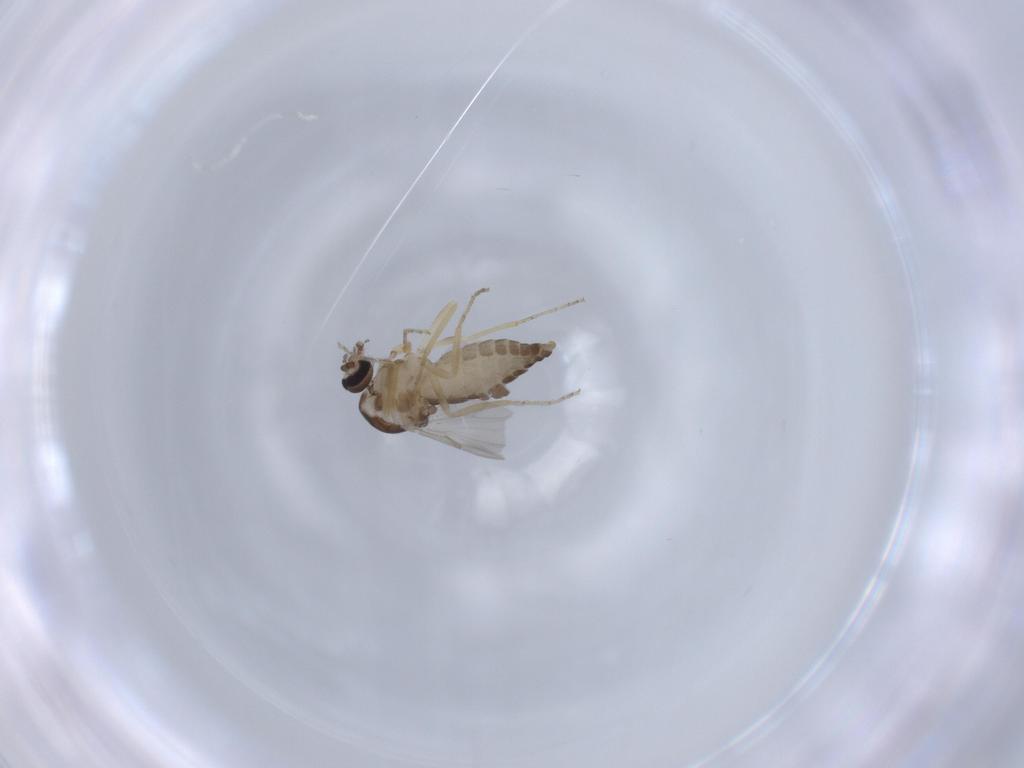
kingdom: Animalia
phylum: Arthropoda
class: Insecta
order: Diptera
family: Ceratopogonidae
